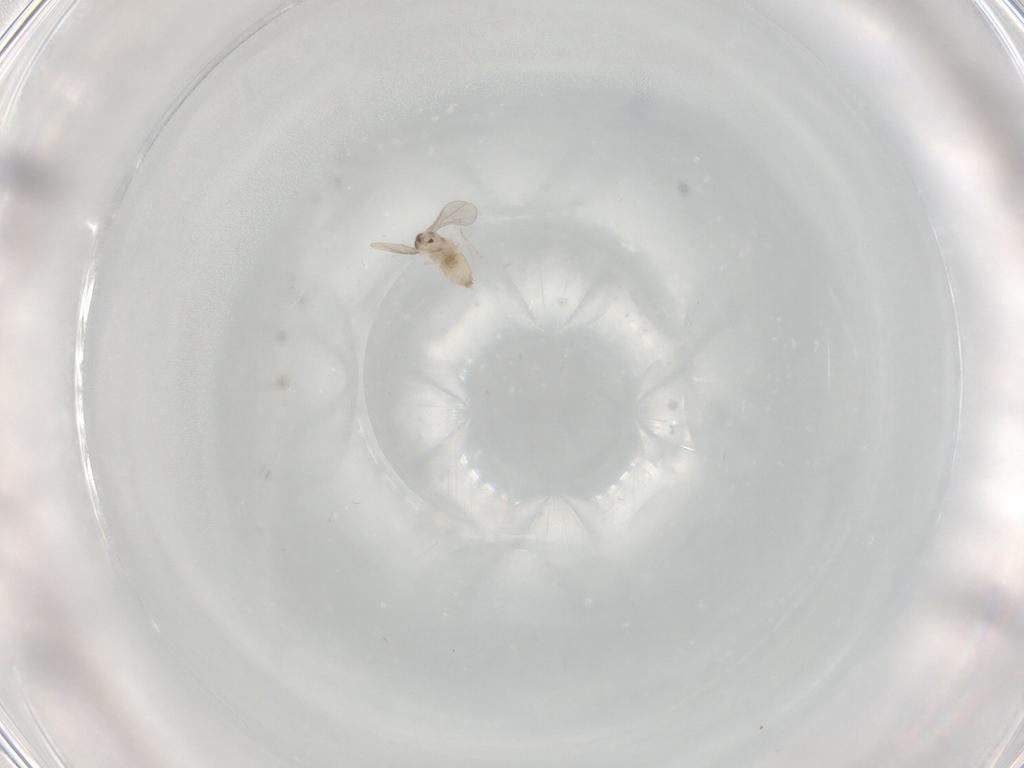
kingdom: Animalia
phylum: Arthropoda
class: Insecta
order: Diptera
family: Cecidomyiidae
